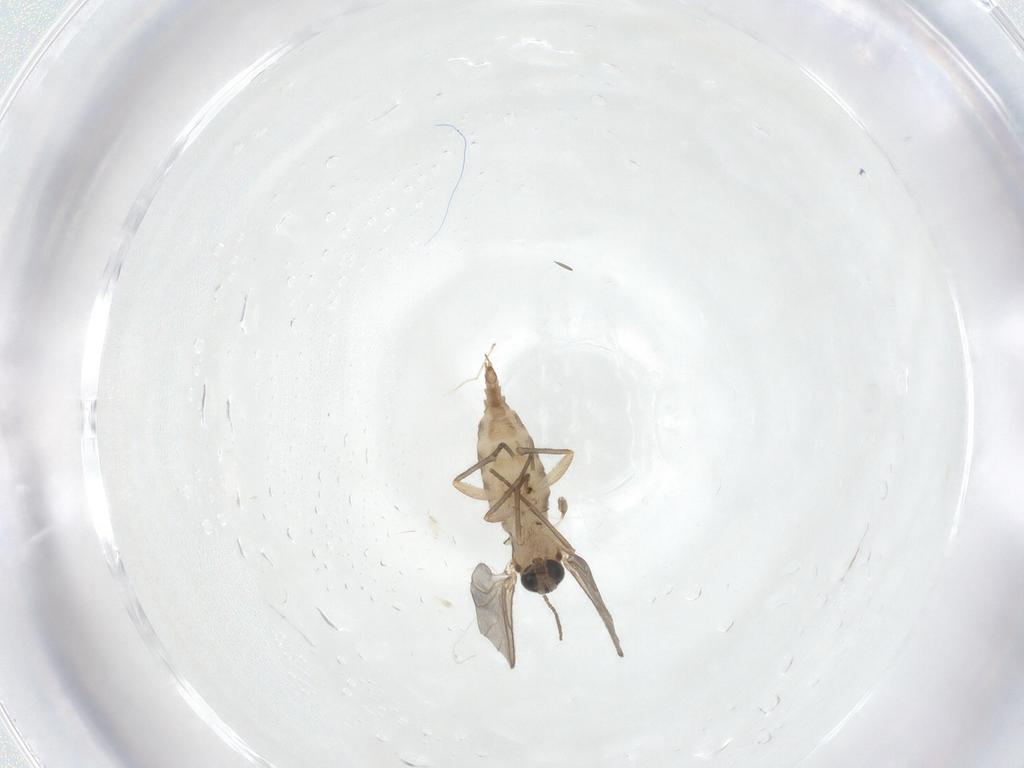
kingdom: Animalia
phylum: Arthropoda
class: Insecta
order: Diptera
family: Sciaridae
